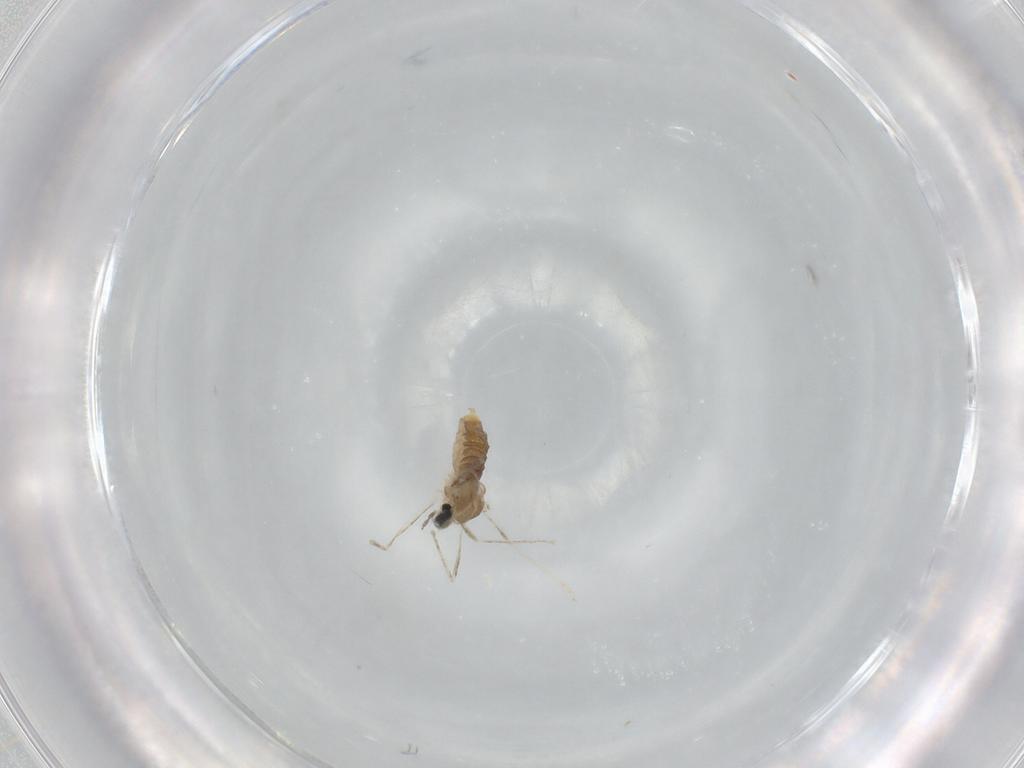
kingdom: Animalia
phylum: Arthropoda
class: Insecta
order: Diptera
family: Cecidomyiidae
